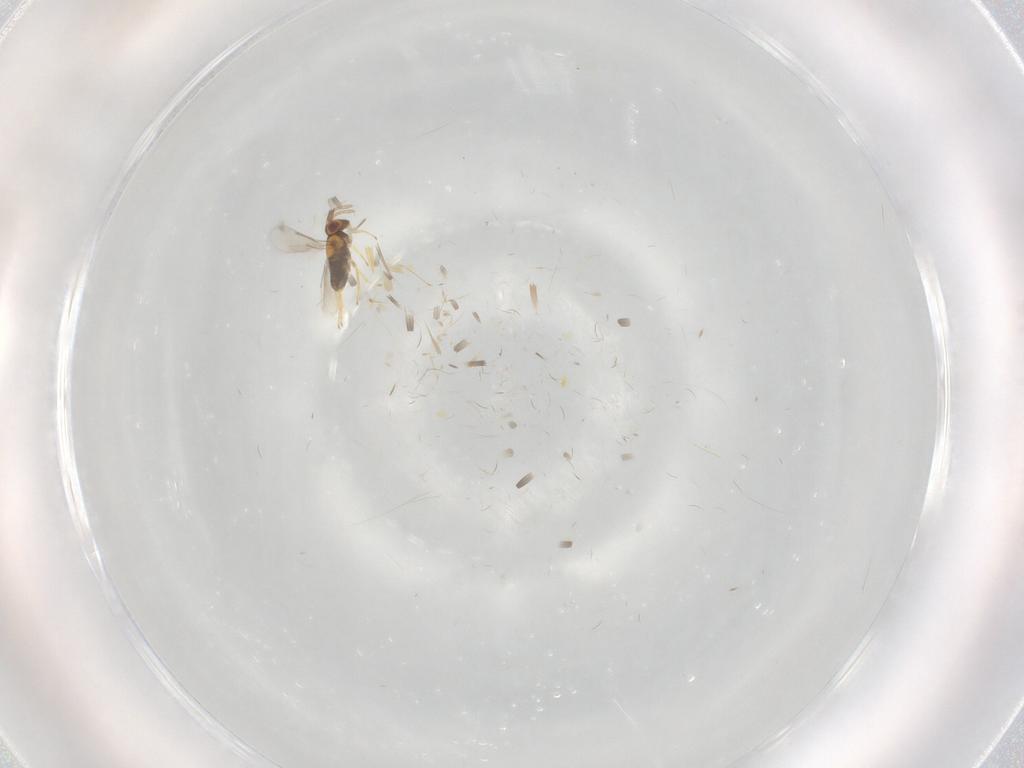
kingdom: Animalia
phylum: Arthropoda
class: Insecta
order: Hymenoptera
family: Aphelinidae
